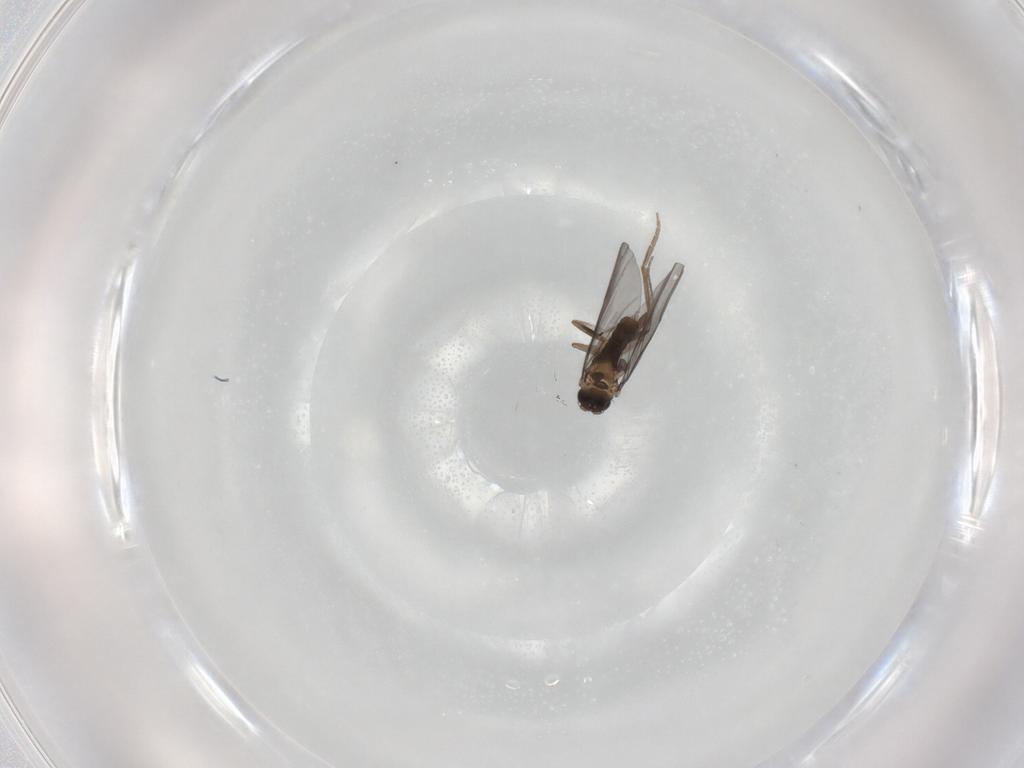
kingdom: Animalia
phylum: Arthropoda
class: Insecta
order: Diptera
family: Phoridae
